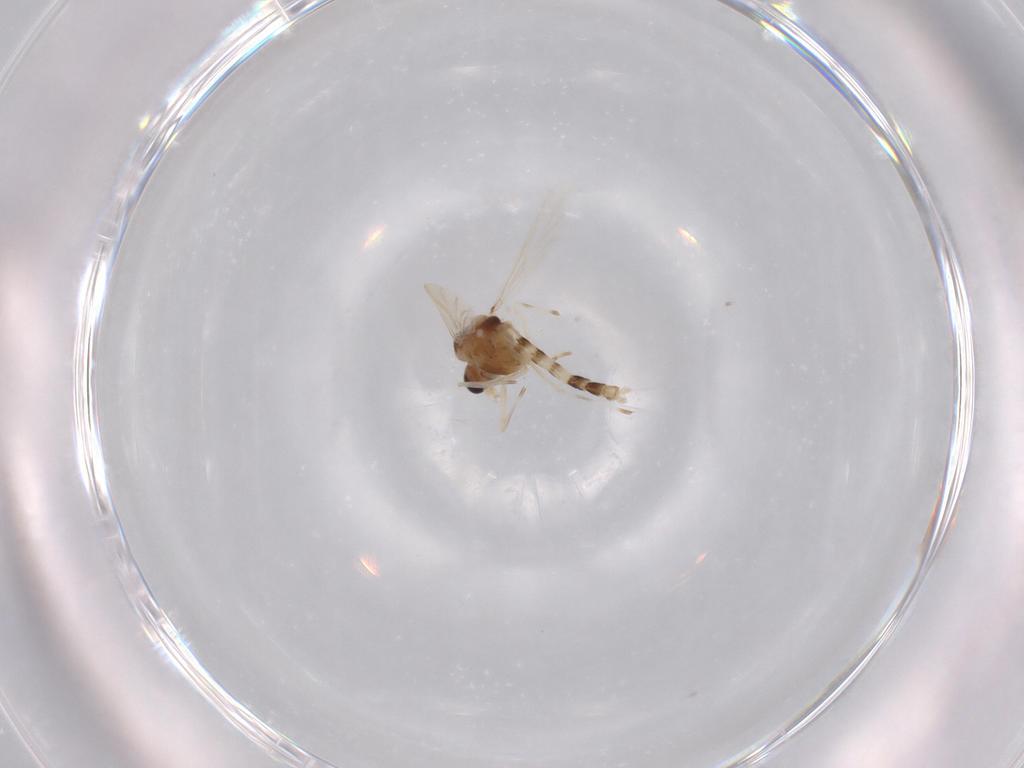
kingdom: Animalia
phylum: Arthropoda
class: Insecta
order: Diptera
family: Chironomidae
